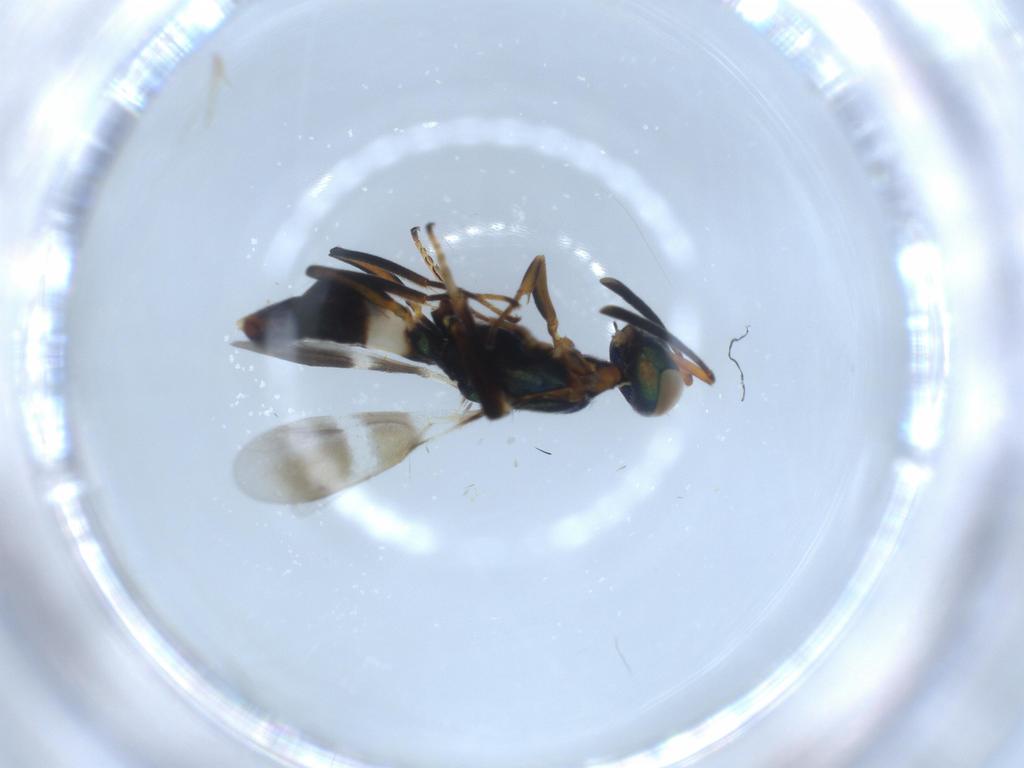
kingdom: Animalia
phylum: Arthropoda
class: Insecta
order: Hymenoptera
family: Eupelmidae
